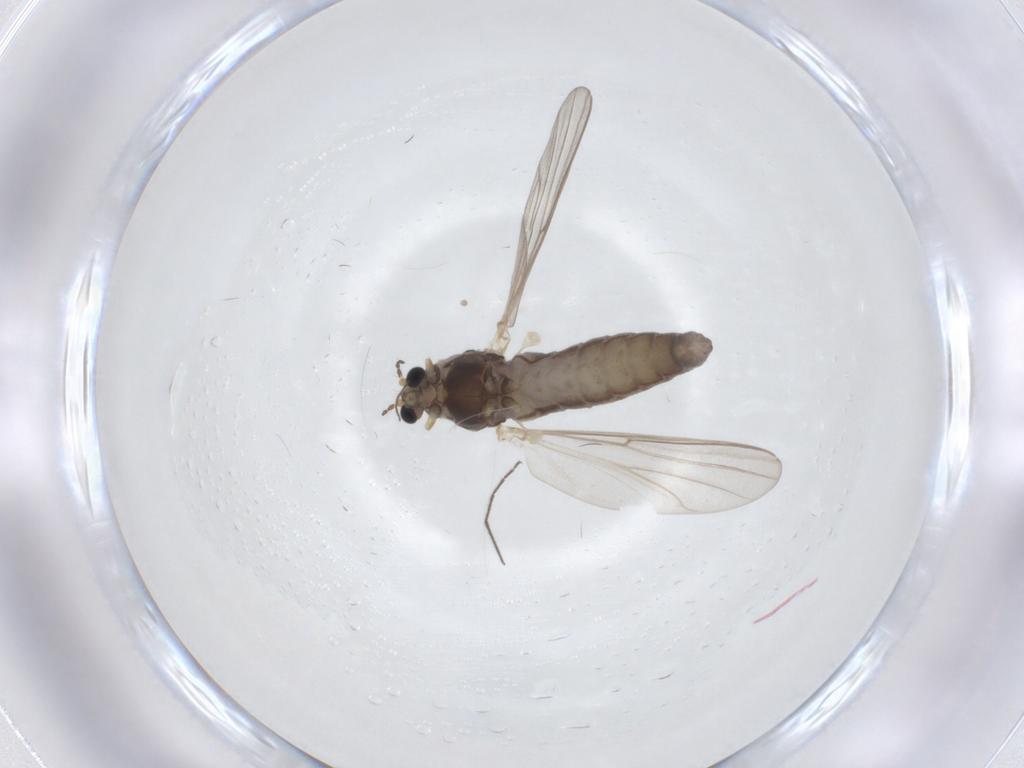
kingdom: Animalia
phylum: Arthropoda
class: Insecta
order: Diptera
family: Chironomidae
